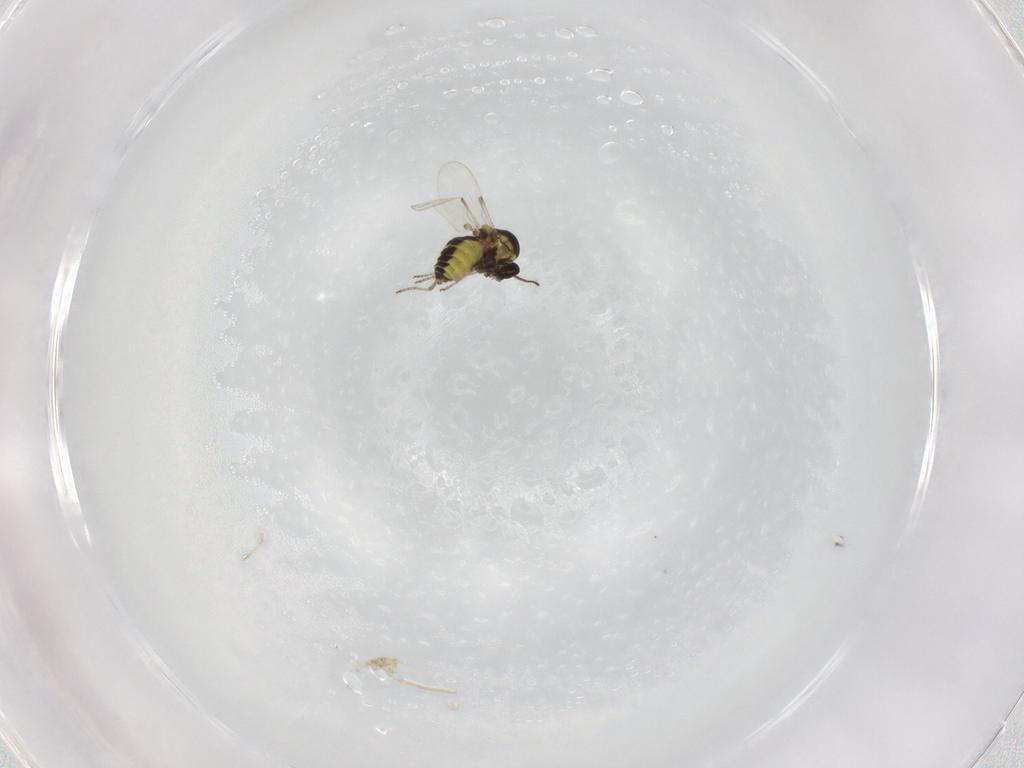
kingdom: Animalia
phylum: Arthropoda
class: Insecta
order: Diptera
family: Ceratopogonidae
